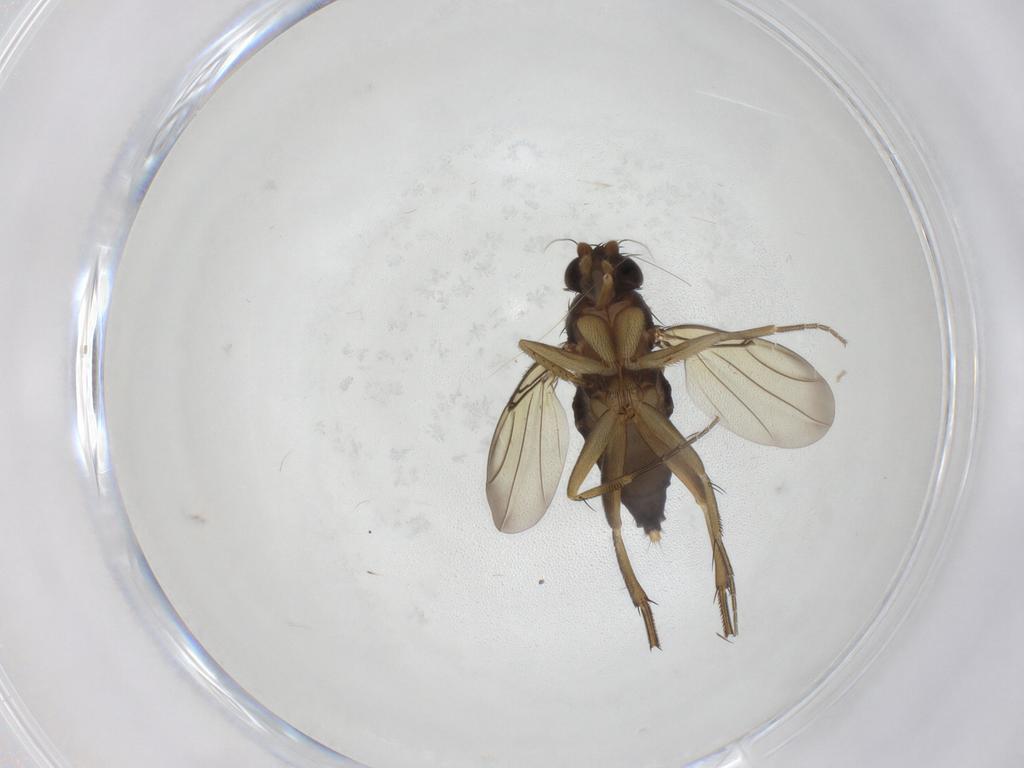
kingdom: Animalia
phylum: Arthropoda
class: Insecta
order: Diptera
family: Phoridae
